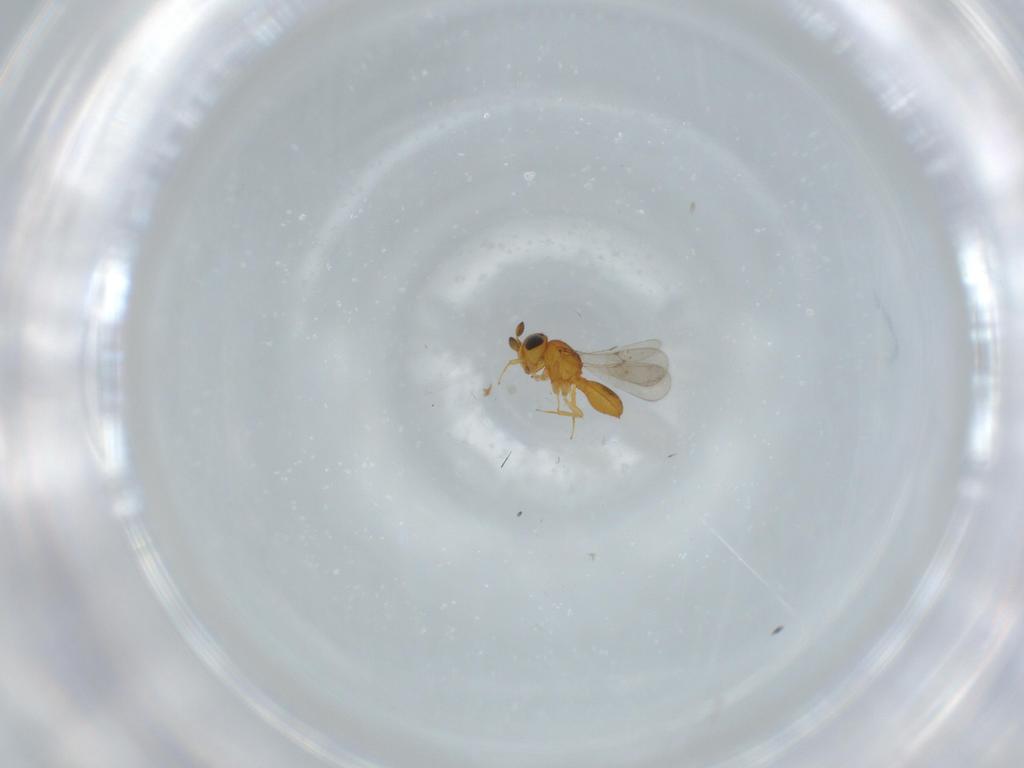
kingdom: Animalia
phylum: Arthropoda
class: Insecta
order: Hymenoptera
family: Scelionidae
